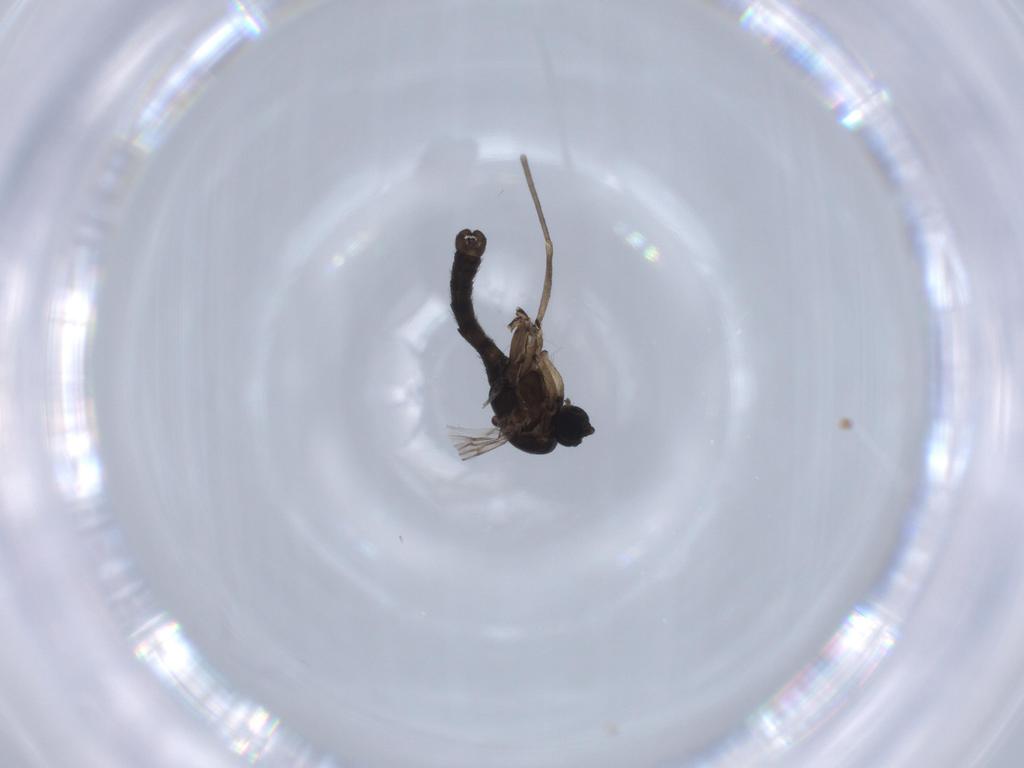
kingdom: Animalia
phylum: Arthropoda
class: Insecta
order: Diptera
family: Sciaridae
